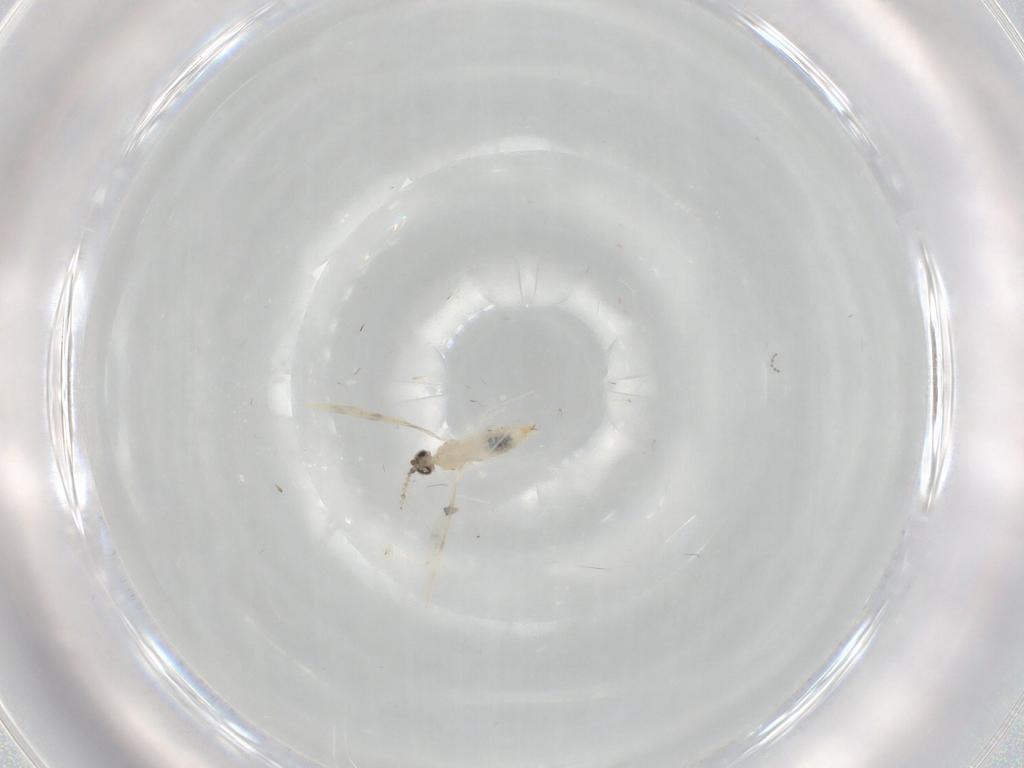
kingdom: Animalia
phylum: Arthropoda
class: Insecta
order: Diptera
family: Cecidomyiidae
